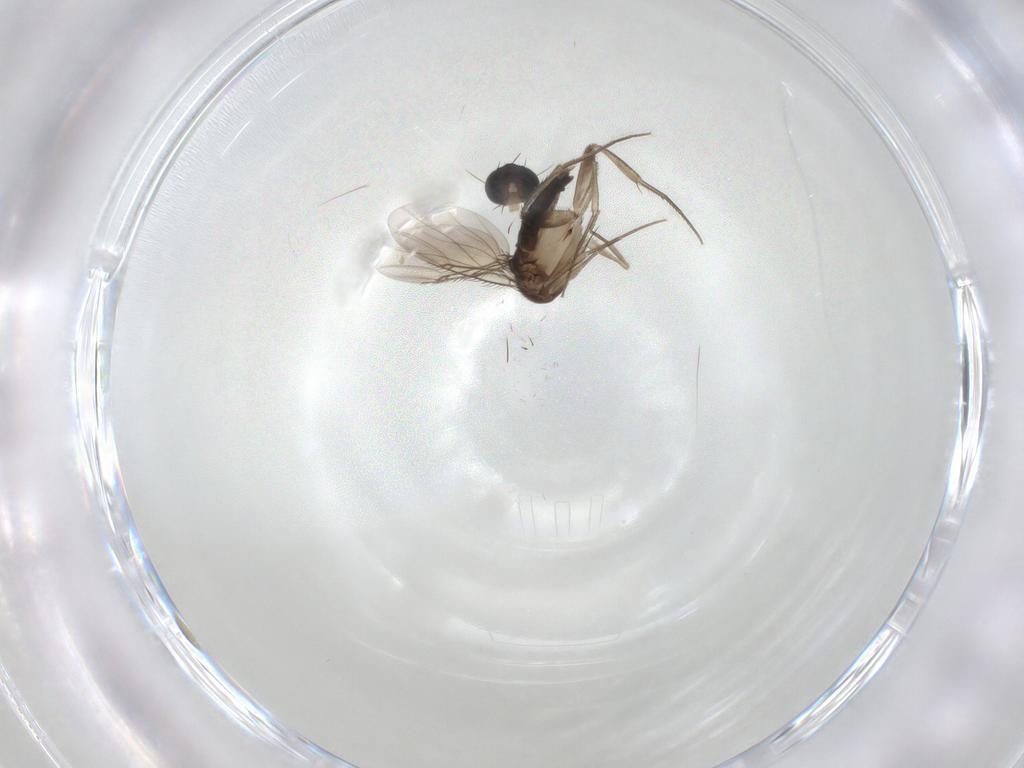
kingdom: Animalia
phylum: Arthropoda
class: Insecta
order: Diptera
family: Phoridae
